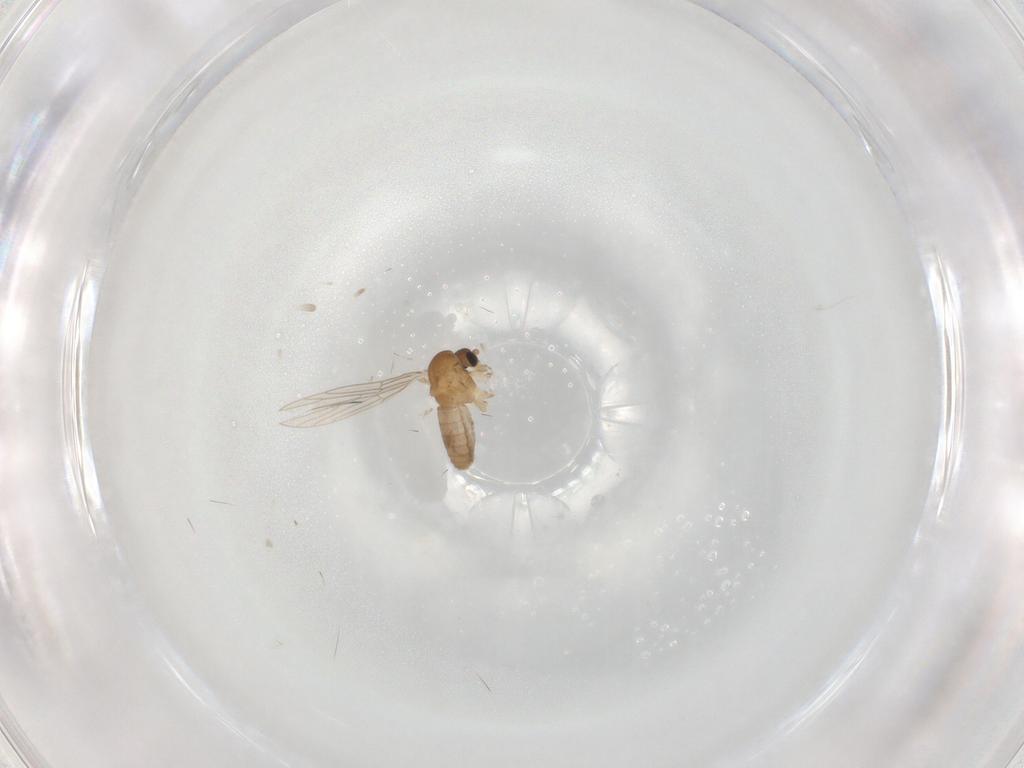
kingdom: Animalia
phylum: Arthropoda
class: Insecta
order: Diptera
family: Psychodidae
